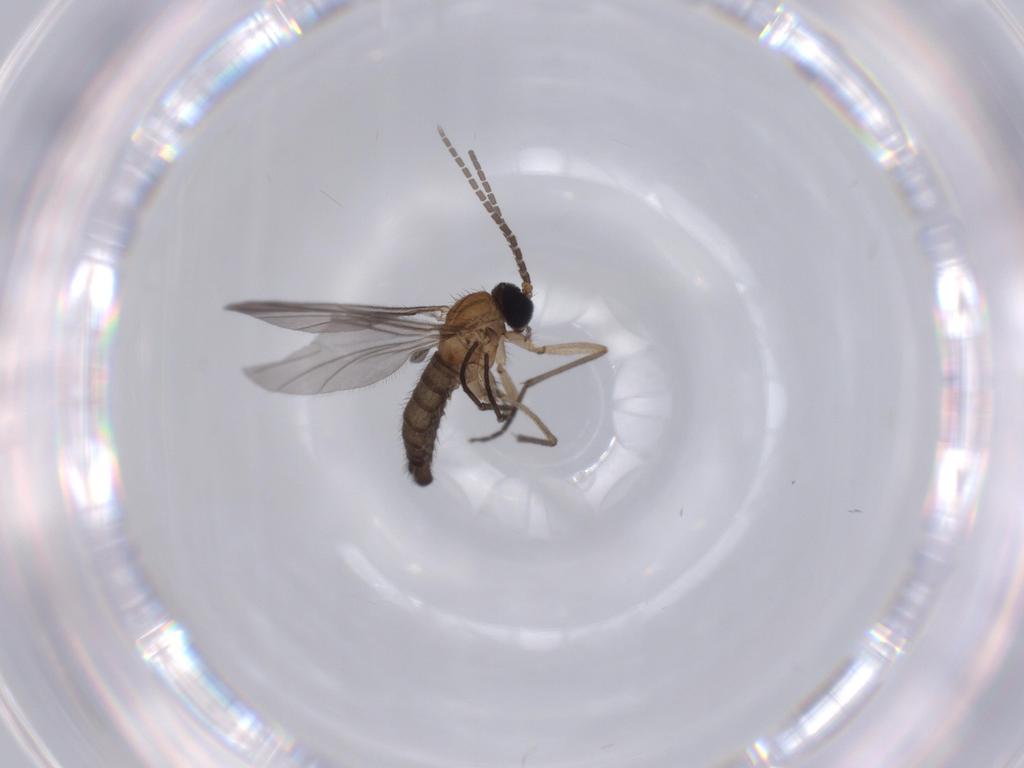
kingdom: Animalia
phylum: Arthropoda
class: Insecta
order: Diptera
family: Sciaridae
